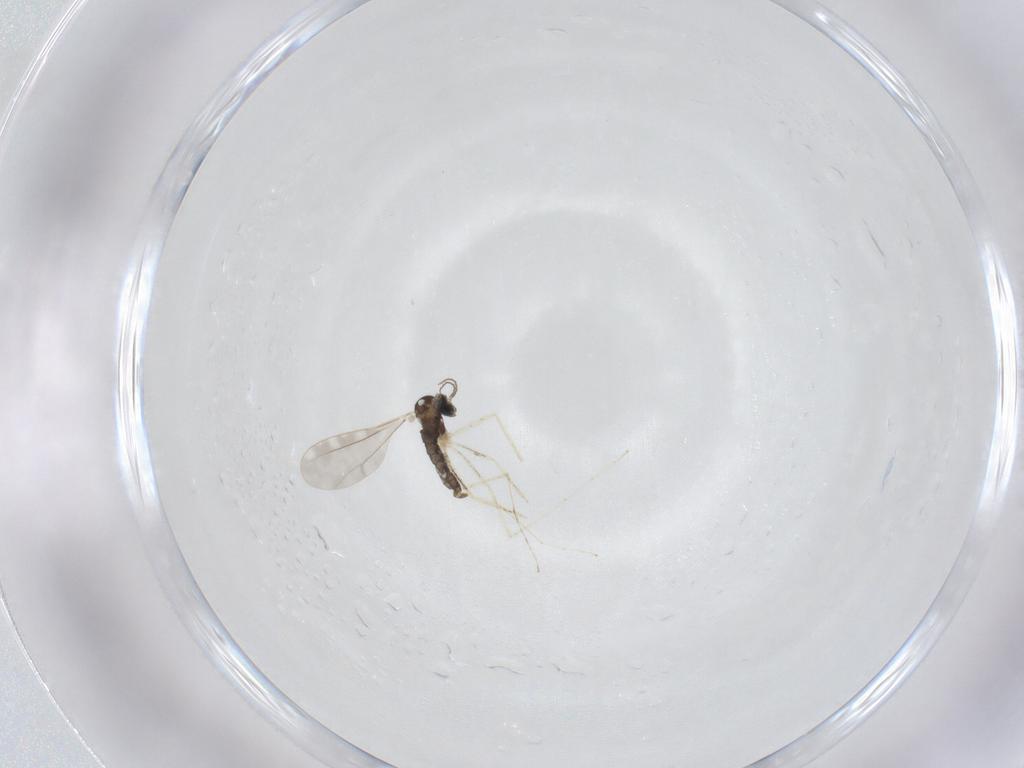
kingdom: Animalia
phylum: Arthropoda
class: Insecta
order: Diptera
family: Cecidomyiidae
